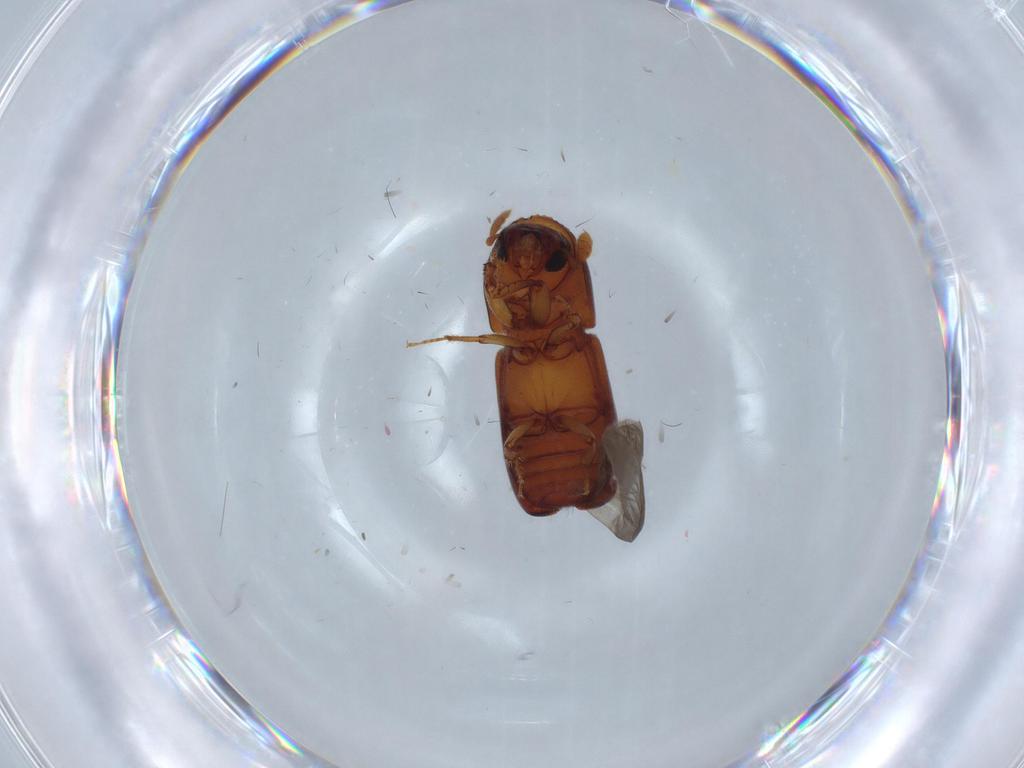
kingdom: Animalia
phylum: Arthropoda
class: Insecta
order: Coleoptera
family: Curculionidae
